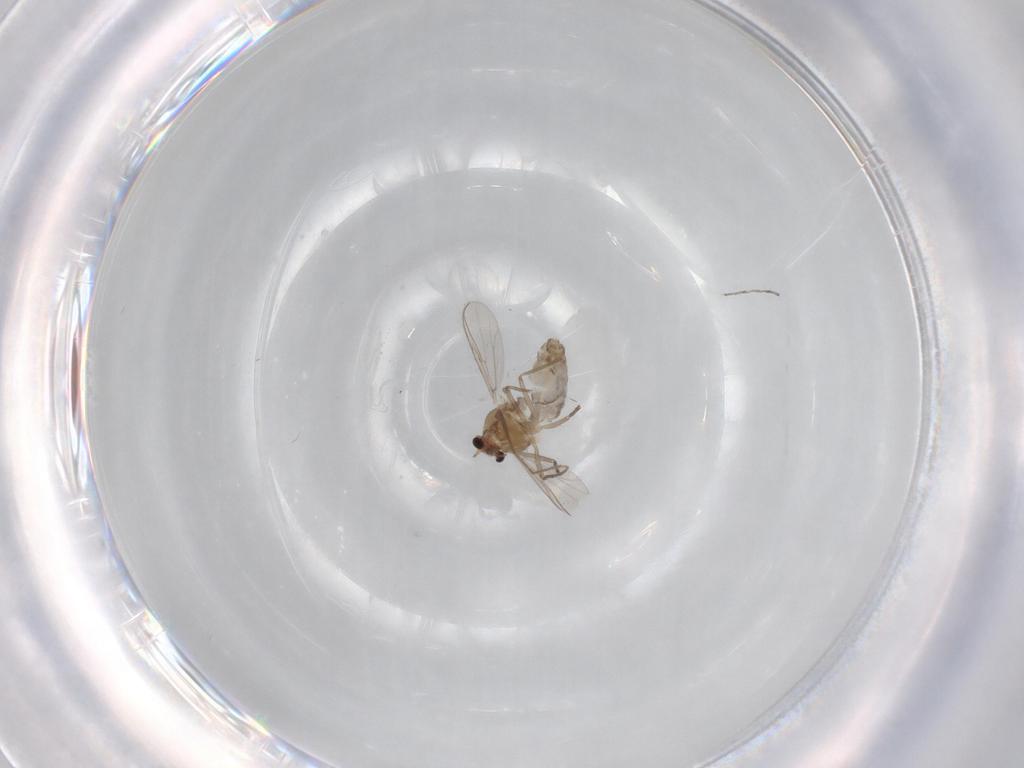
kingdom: Animalia
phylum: Arthropoda
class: Insecta
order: Diptera
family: Chironomidae
